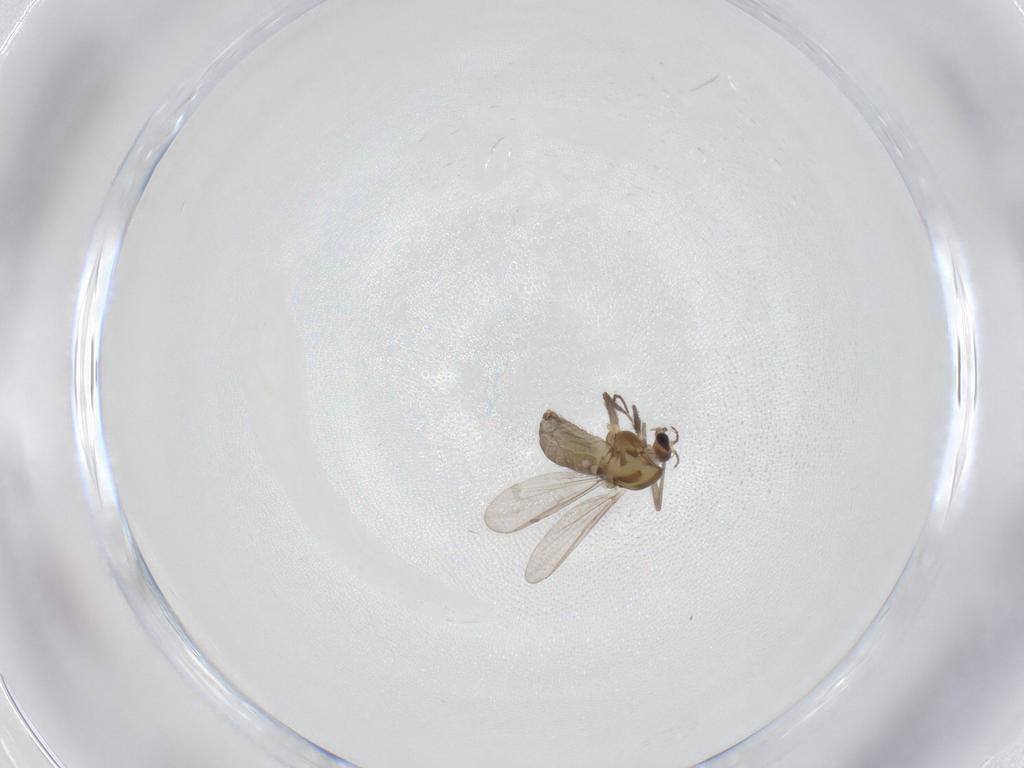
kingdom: Animalia
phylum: Arthropoda
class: Insecta
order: Diptera
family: Chironomidae
